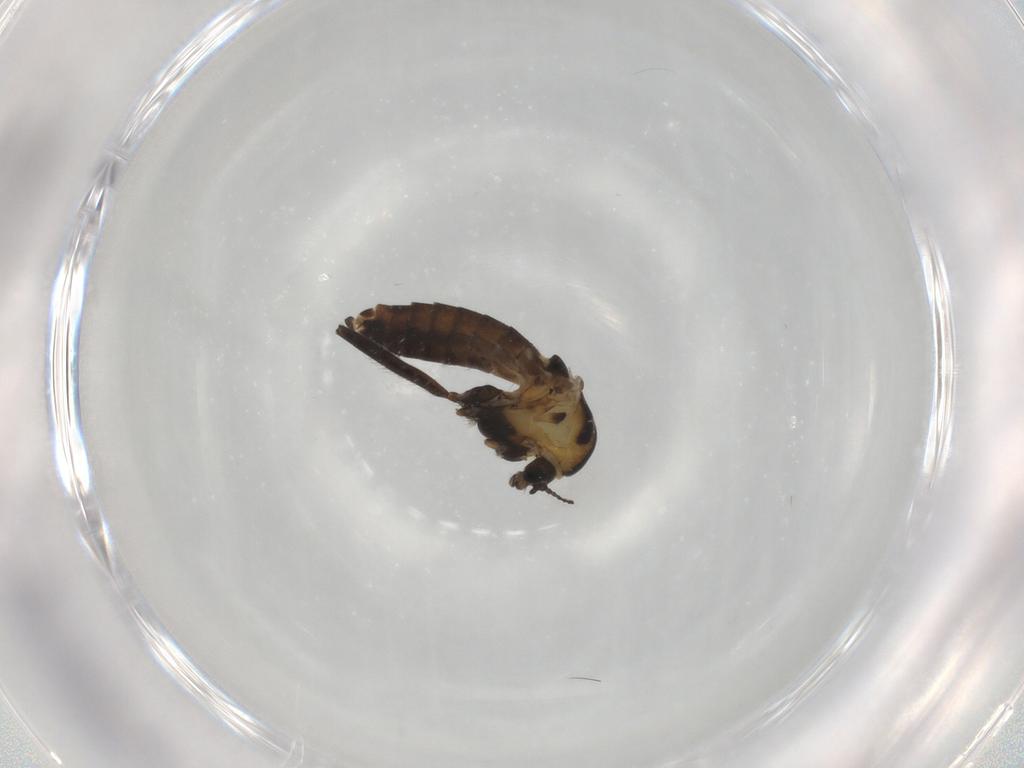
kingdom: Animalia
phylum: Arthropoda
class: Insecta
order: Diptera
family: Chironomidae
